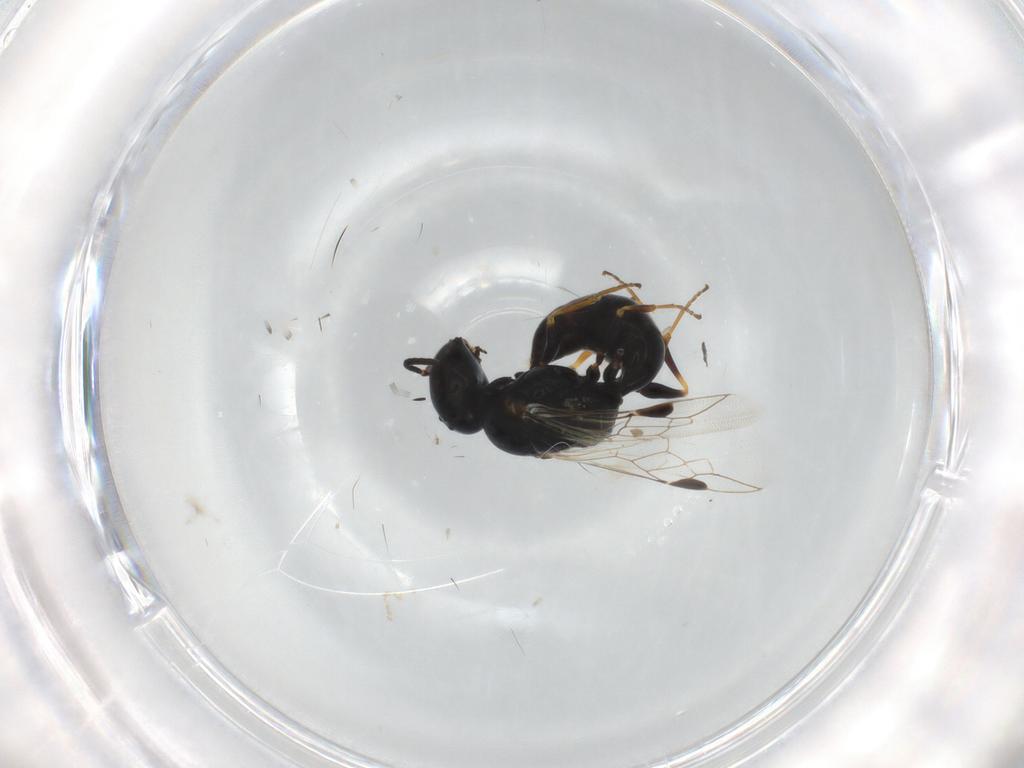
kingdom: Animalia
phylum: Arthropoda
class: Insecta
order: Hymenoptera
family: Crabronidae
